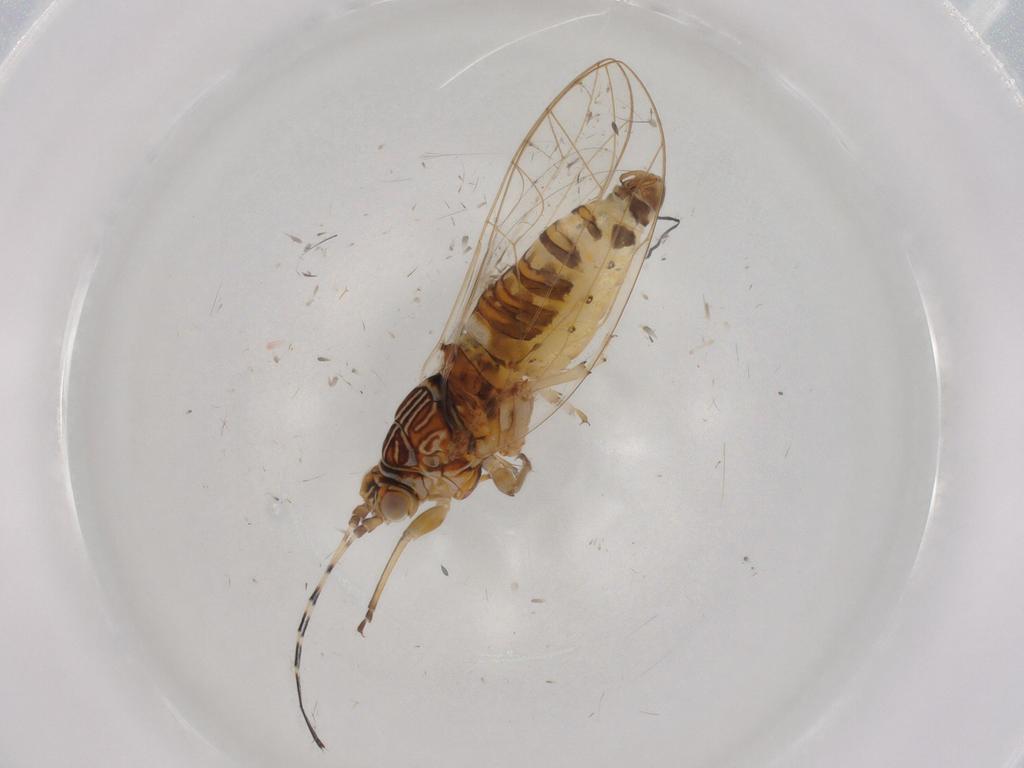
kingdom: Animalia
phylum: Arthropoda
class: Insecta
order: Hemiptera
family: Carsidaridae
